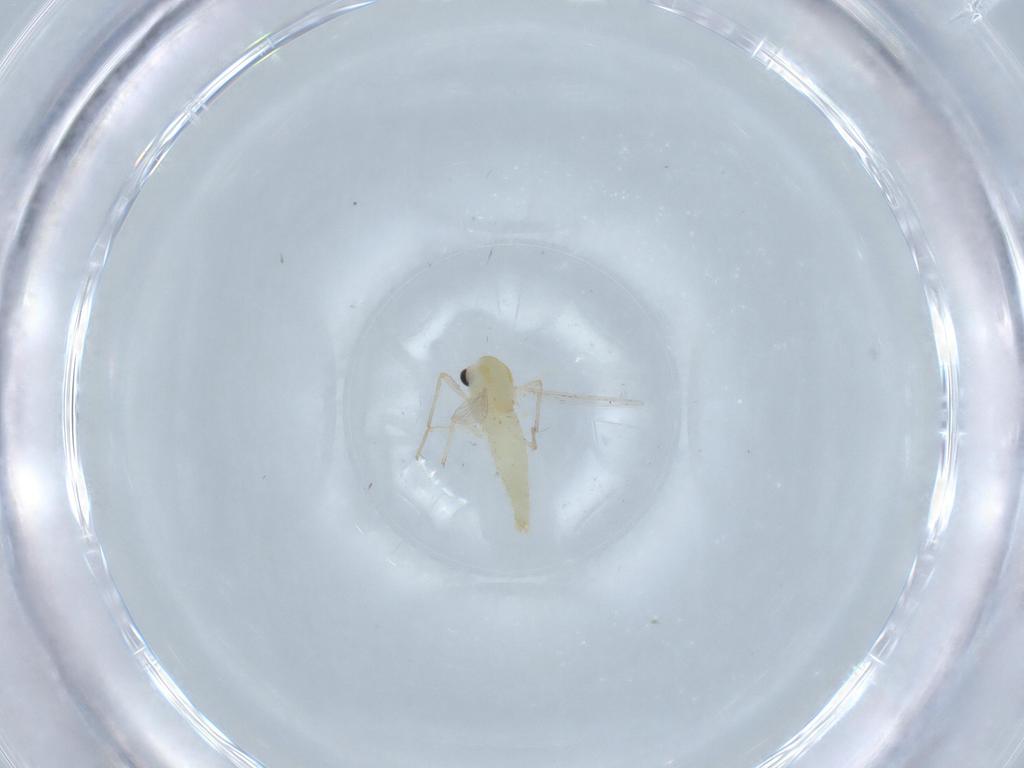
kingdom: Animalia
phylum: Arthropoda
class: Insecta
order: Diptera
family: Chironomidae
